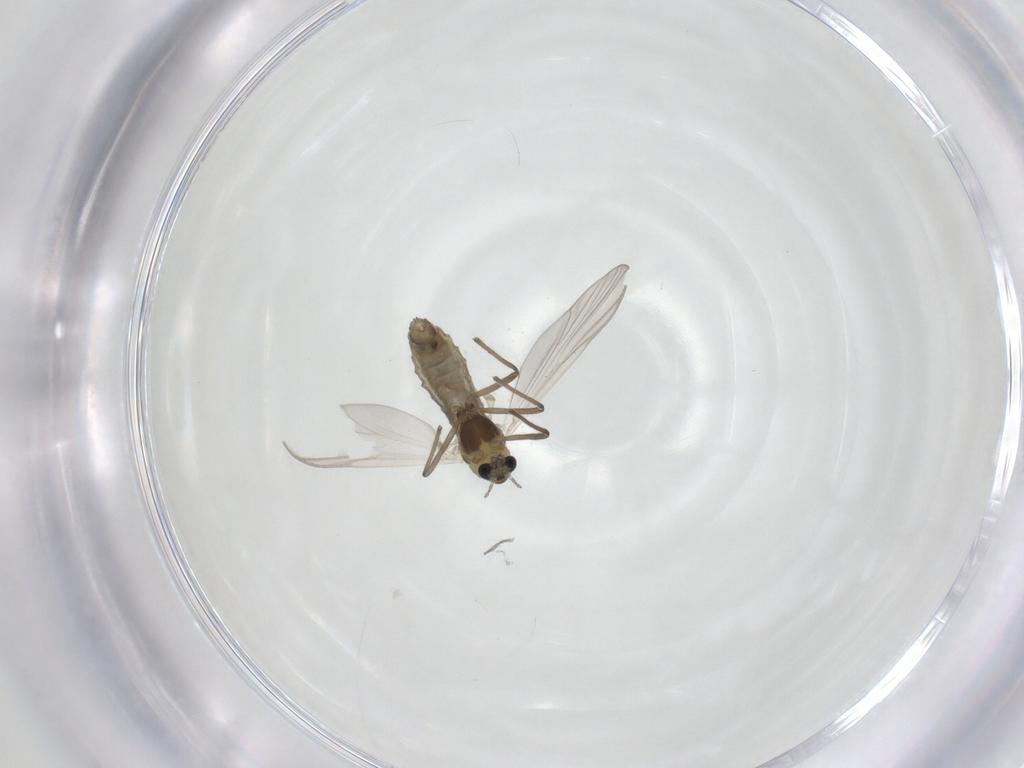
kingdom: Animalia
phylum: Arthropoda
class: Insecta
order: Diptera
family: Chironomidae
